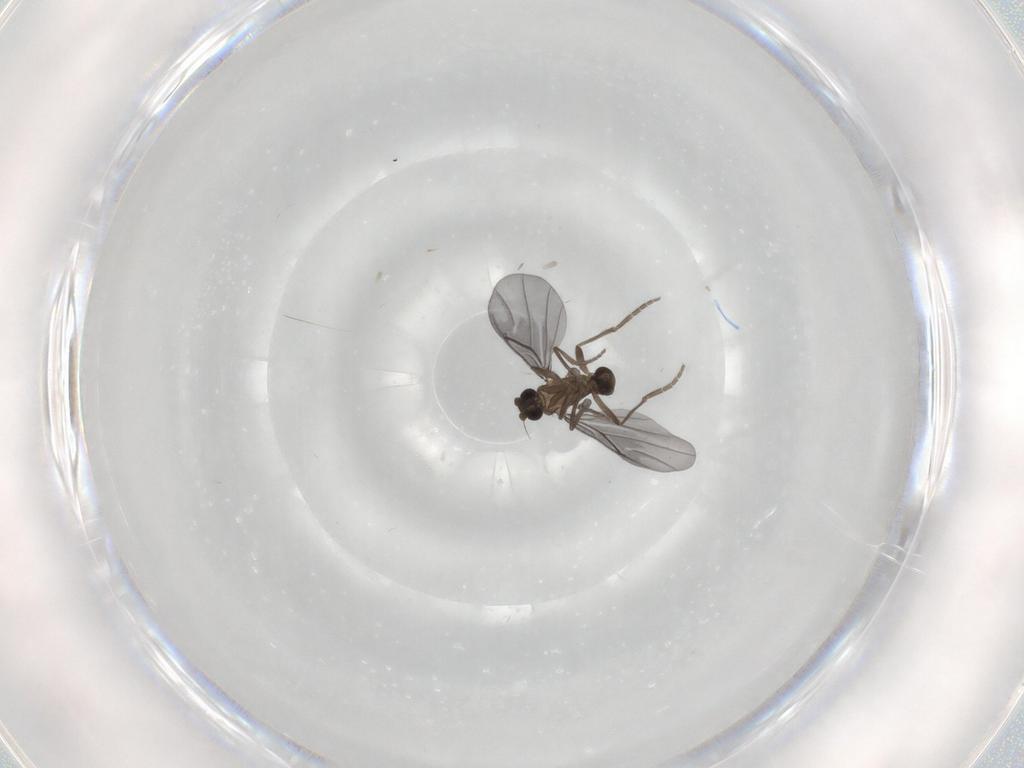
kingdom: Animalia
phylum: Arthropoda
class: Insecta
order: Diptera
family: Phoridae
